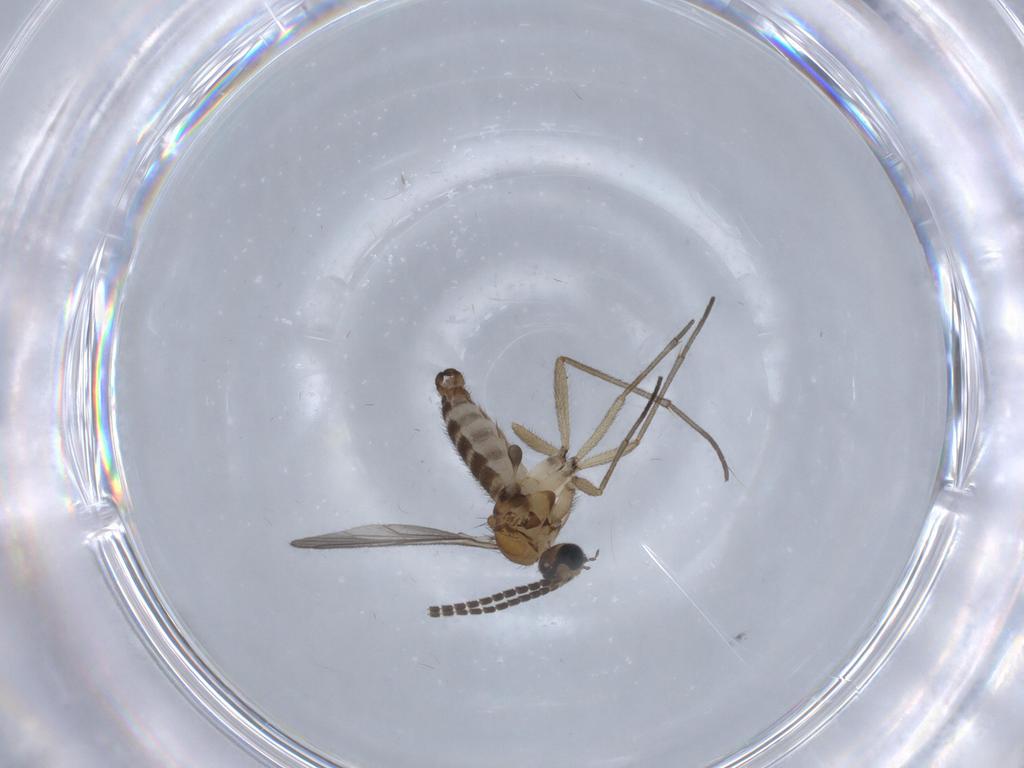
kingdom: Animalia
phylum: Arthropoda
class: Insecta
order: Diptera
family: Sciaridae
